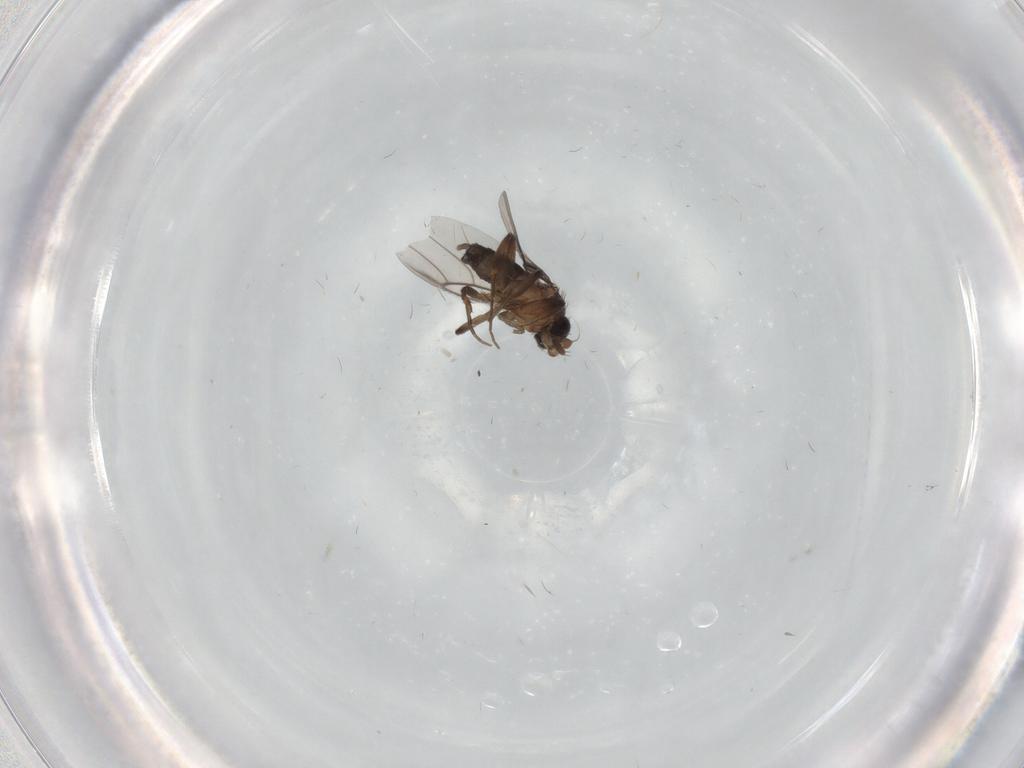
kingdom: Animalia
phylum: Arthropoda
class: Insecta
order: Diptera
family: Phoridae
